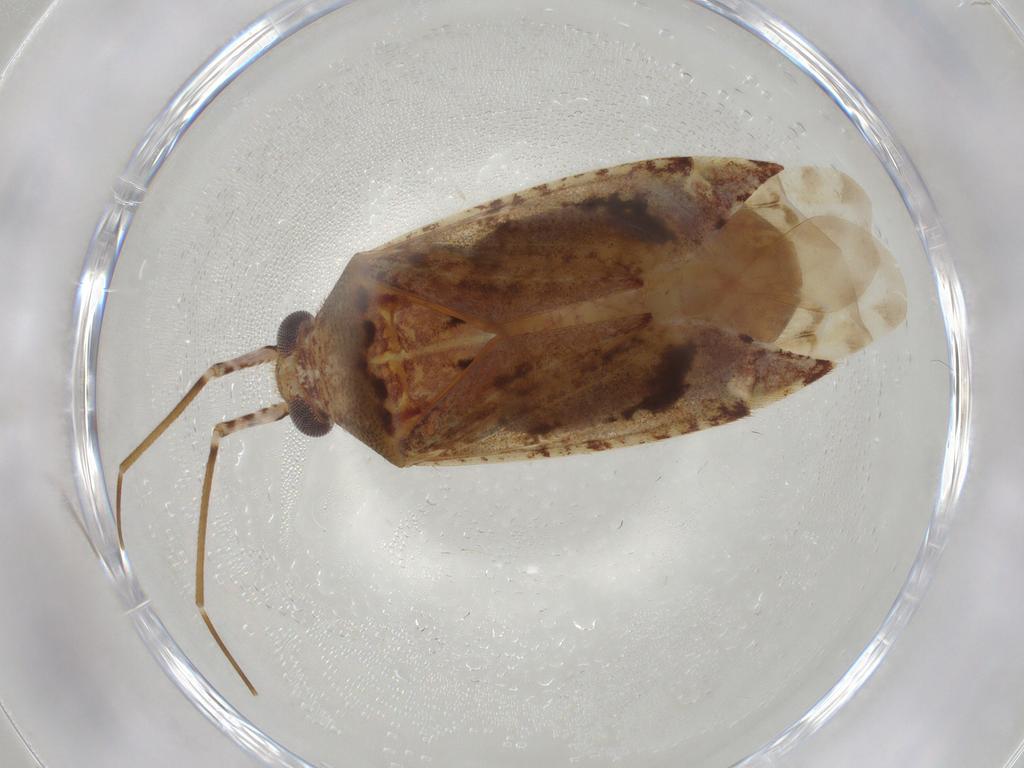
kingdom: Animalia
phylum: Arthropoda
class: Insecta
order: Hemiptera
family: Miridae
